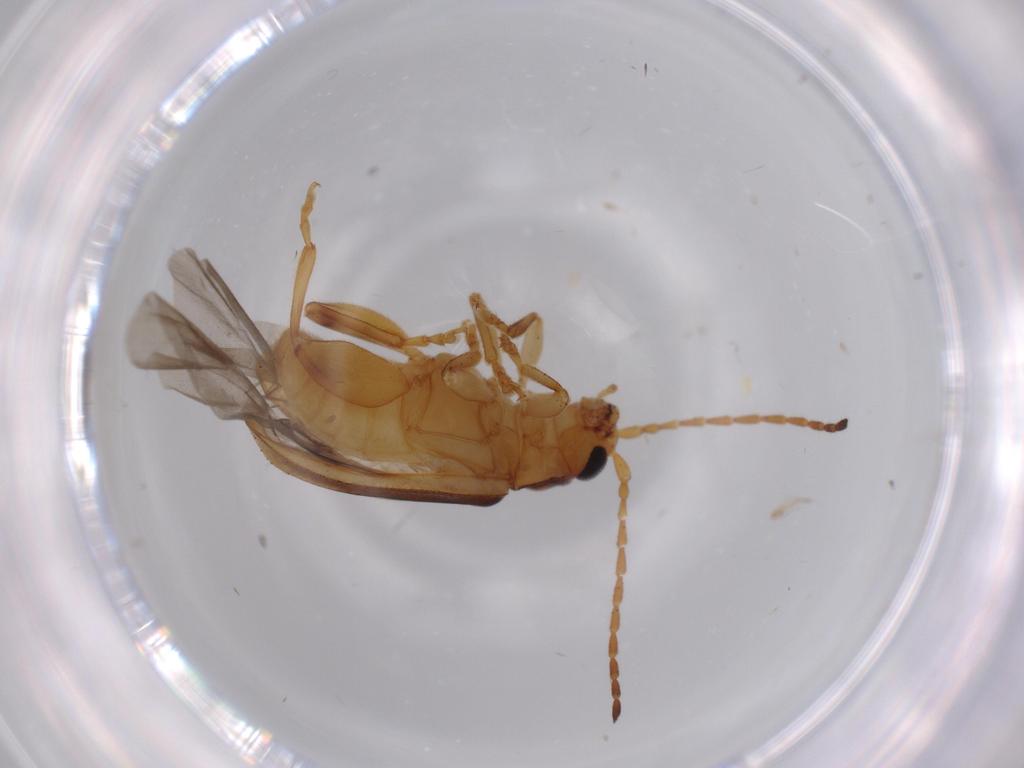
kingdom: Animalia
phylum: Arthropoda
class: Insecta
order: Coleoptera
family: Chrysomelidae
